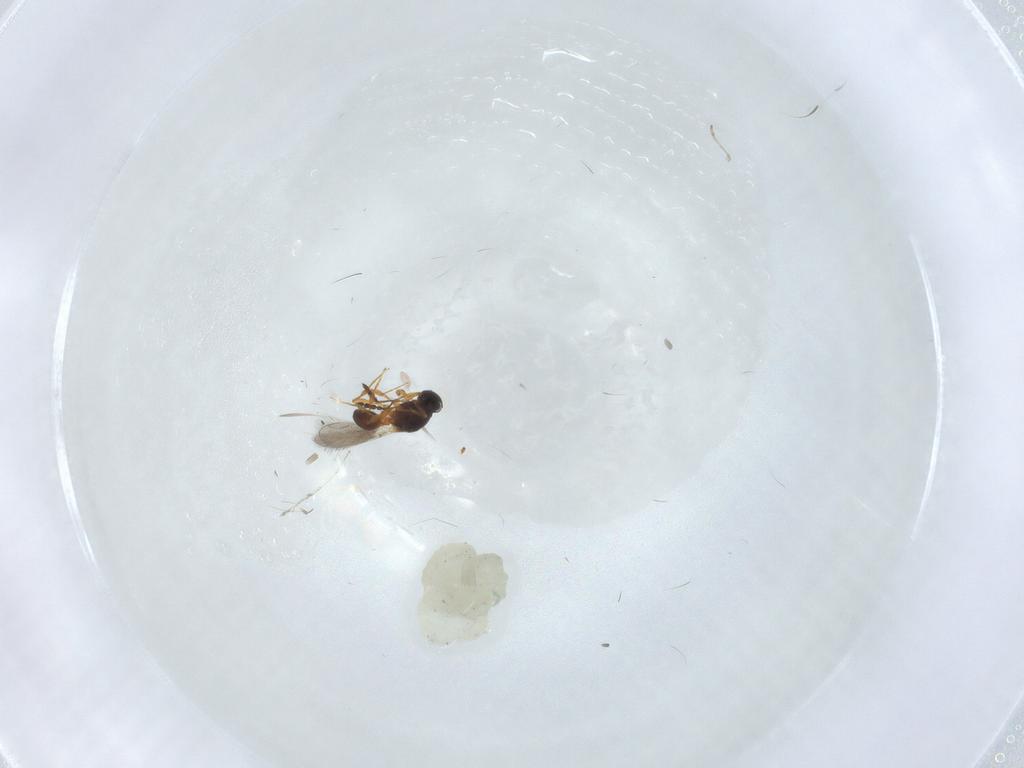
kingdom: Animalia
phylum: Arthropoda
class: Insecta
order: Hymenoptera
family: Platygastridae
